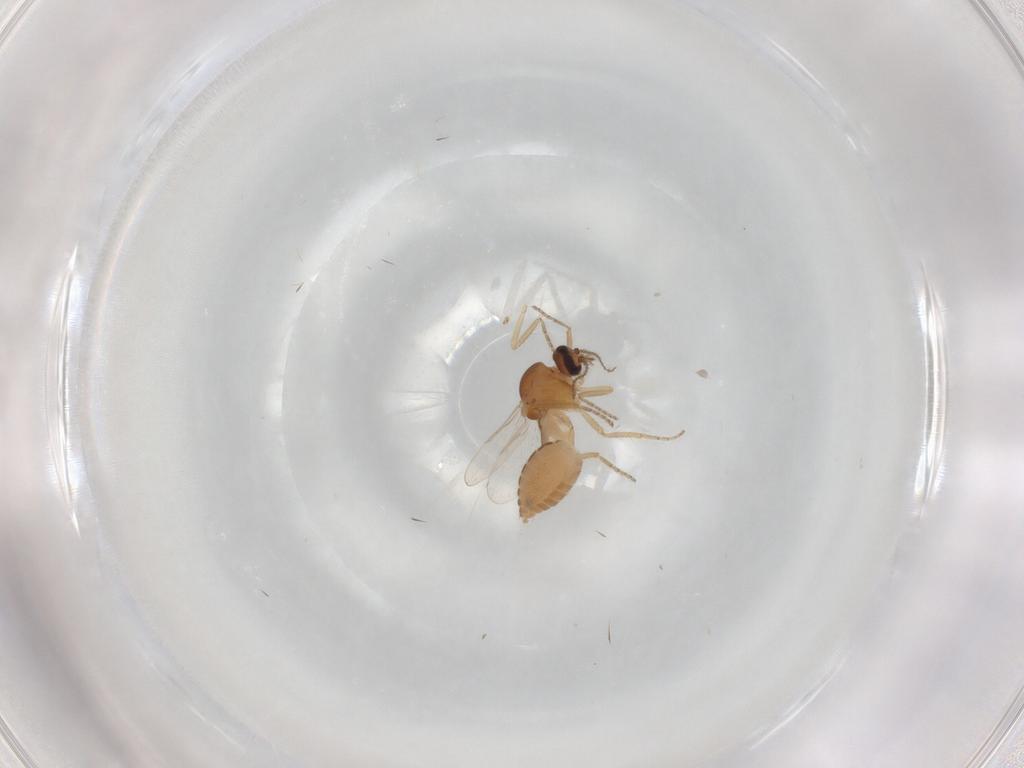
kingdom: Animalia
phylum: Arthropoda
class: Insecta
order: Diptera
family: Ceratopogonidae
